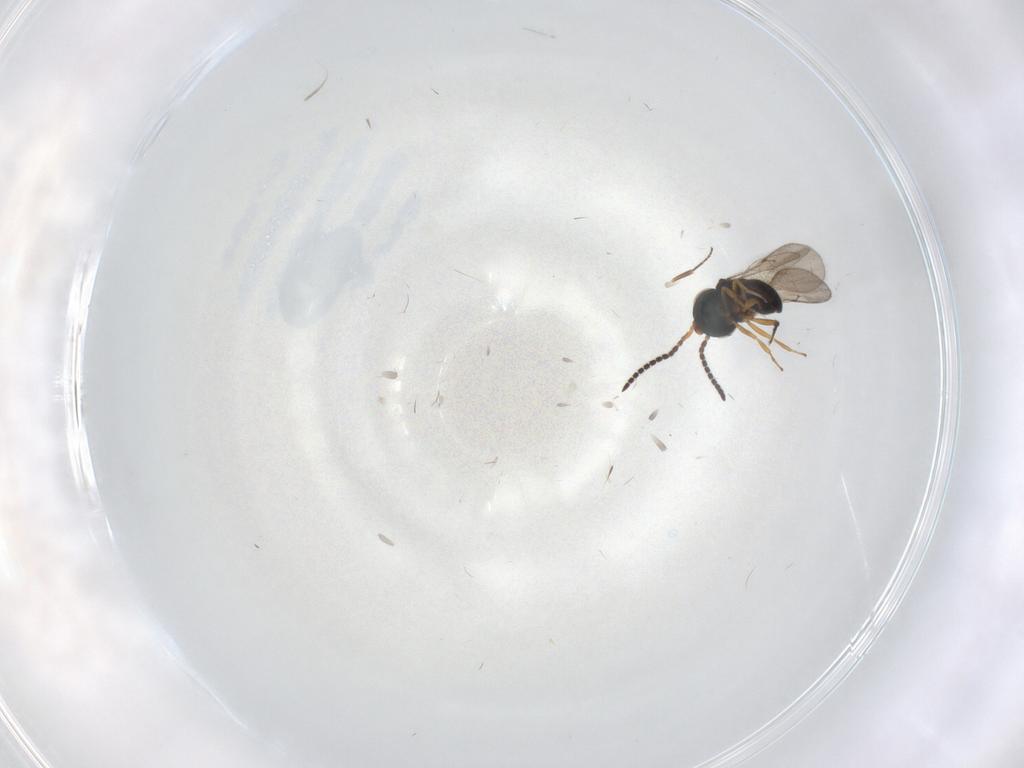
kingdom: Animalia
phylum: Arthropoda
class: Insecta
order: Hymenoptera
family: Scelionidae
